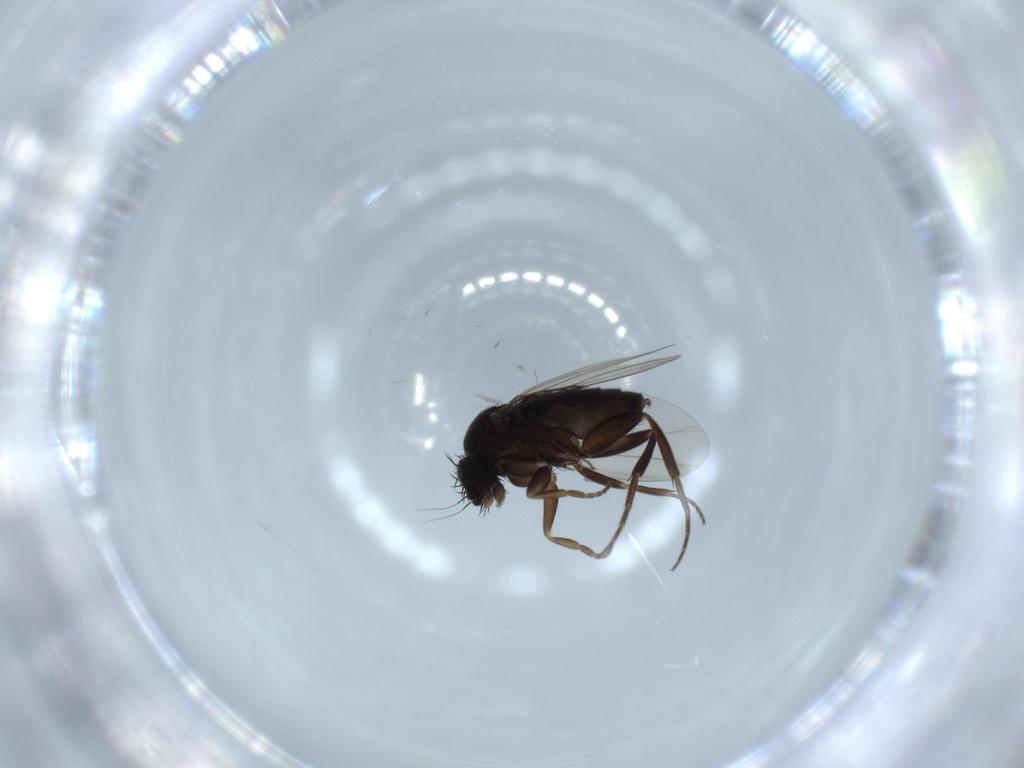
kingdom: Animalia
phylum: Arthropoda
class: Insecta
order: Diptera
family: Phoridae
